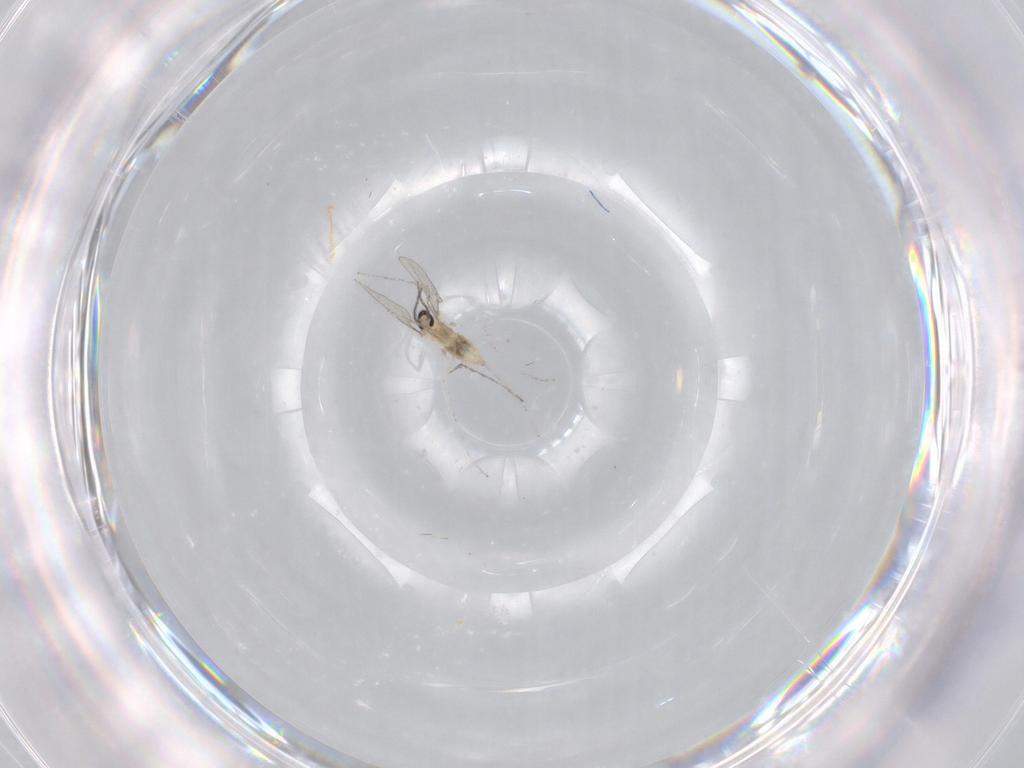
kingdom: Animalia
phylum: Arthropoda
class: Insecta
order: Diptera
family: Cecidomyiidae
